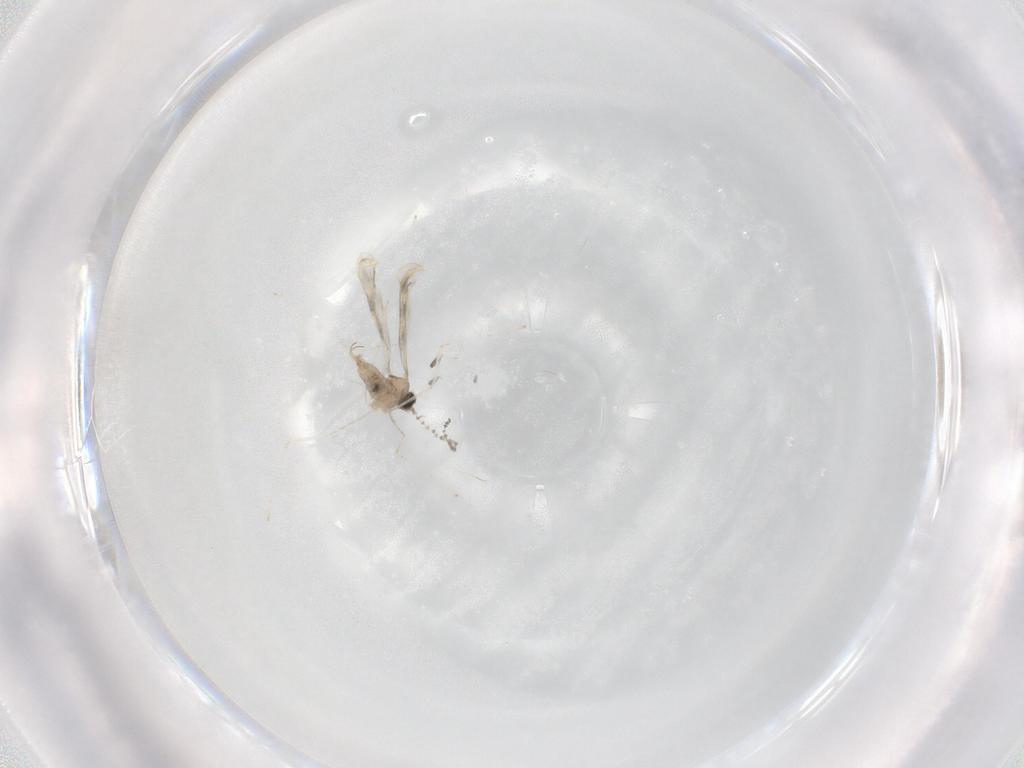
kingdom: Animalia
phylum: Arthropoda
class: Insecta
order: Diptera
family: Cecidomyiidae
